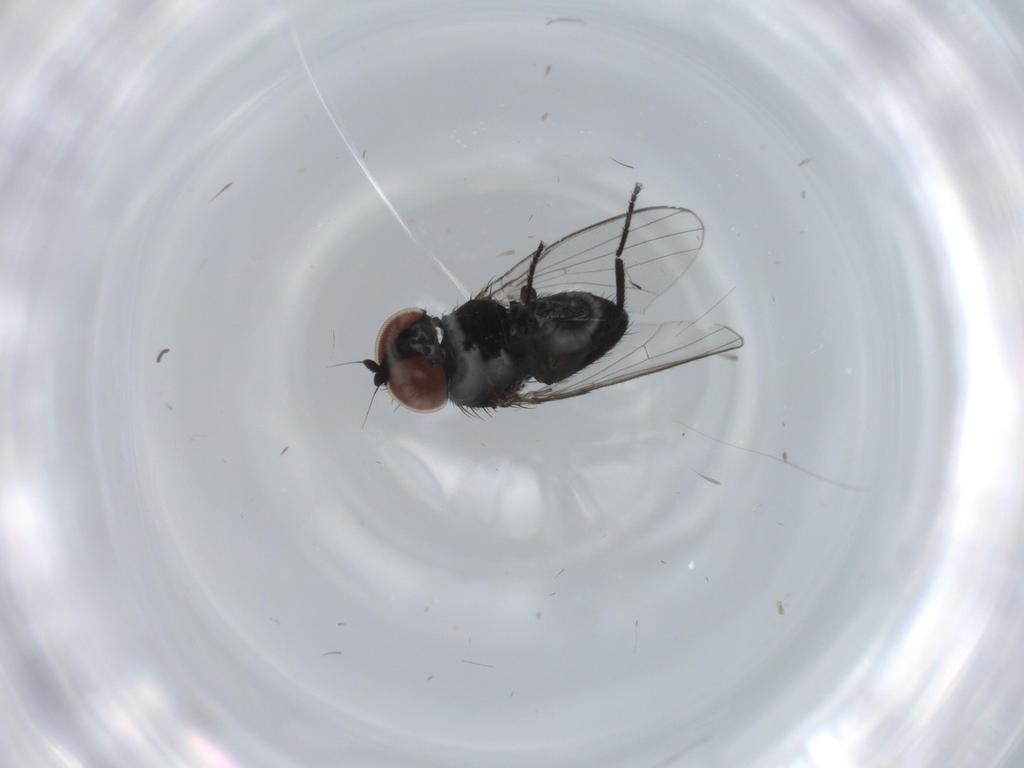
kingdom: Animalia
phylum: Arthropoda
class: Insecta
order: Diptera
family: Milichiidae
